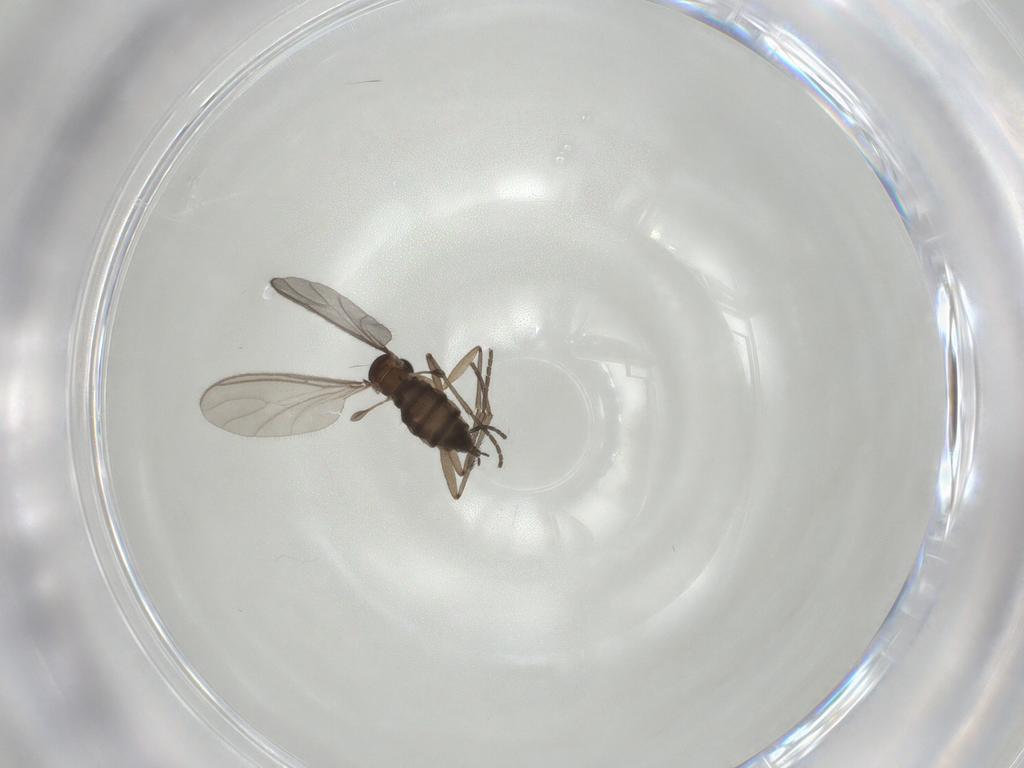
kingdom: Animalia
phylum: Arthropoda
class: Insecta
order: Diptera
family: Sciaridae
